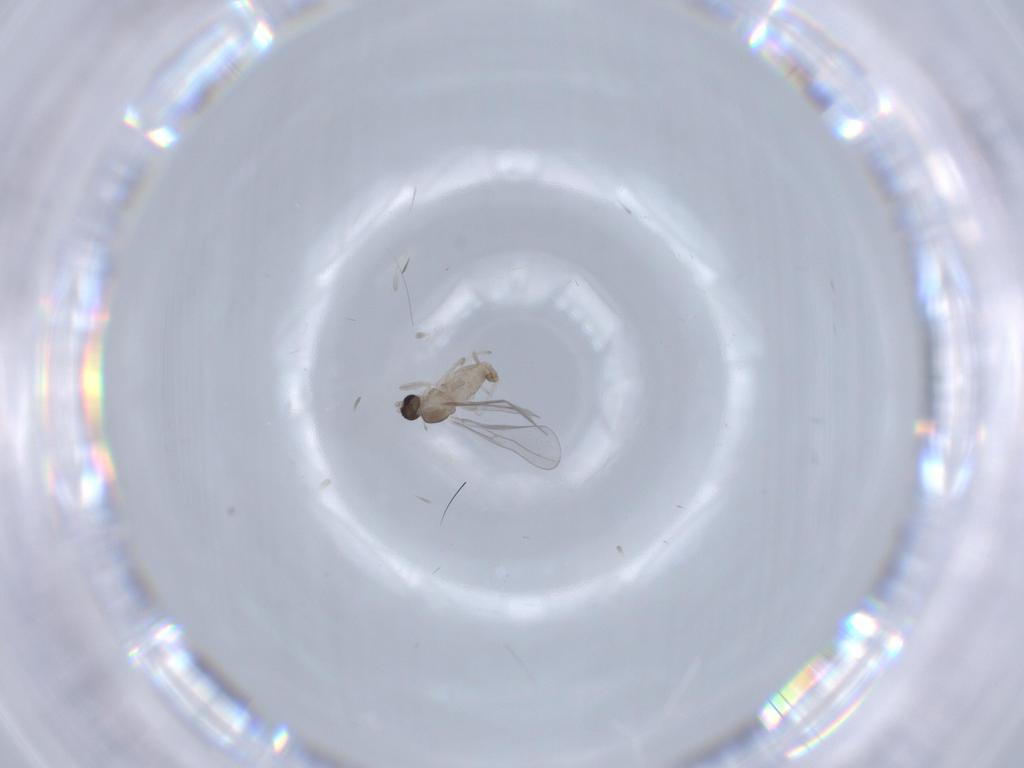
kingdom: Animalia
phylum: Arthropoda
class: Insecta
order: Diptera
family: Cecidomyiidae
